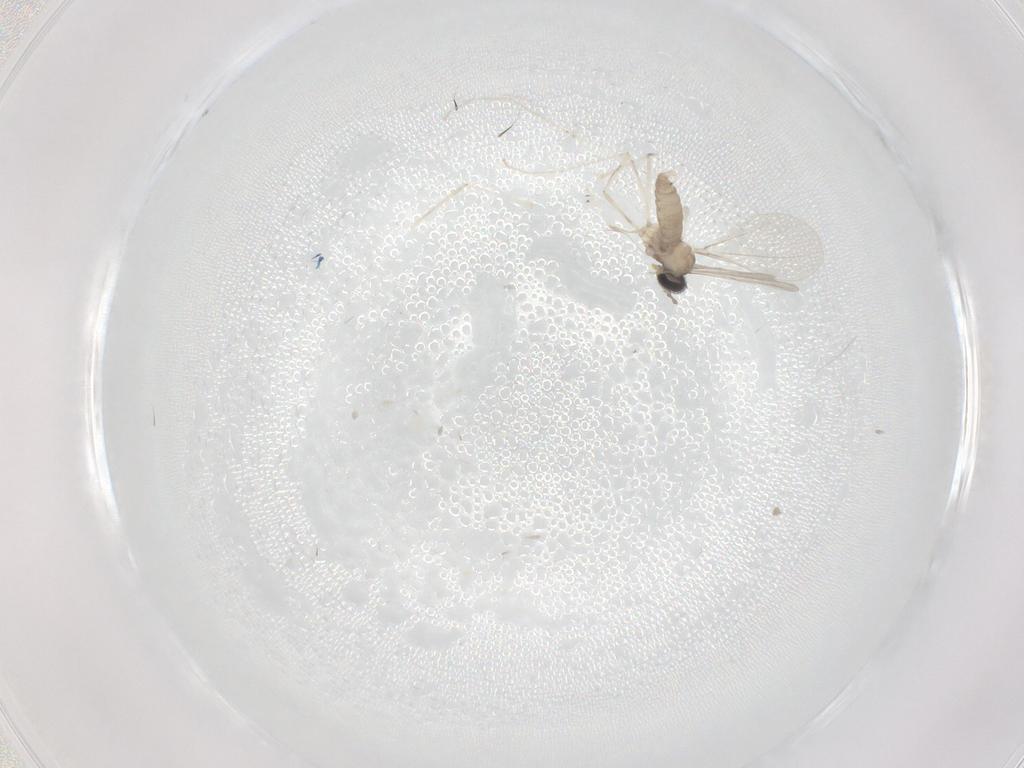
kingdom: Animalia
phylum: Arthropoda
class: Insecta
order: Diptera
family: Cecidomyiidae
